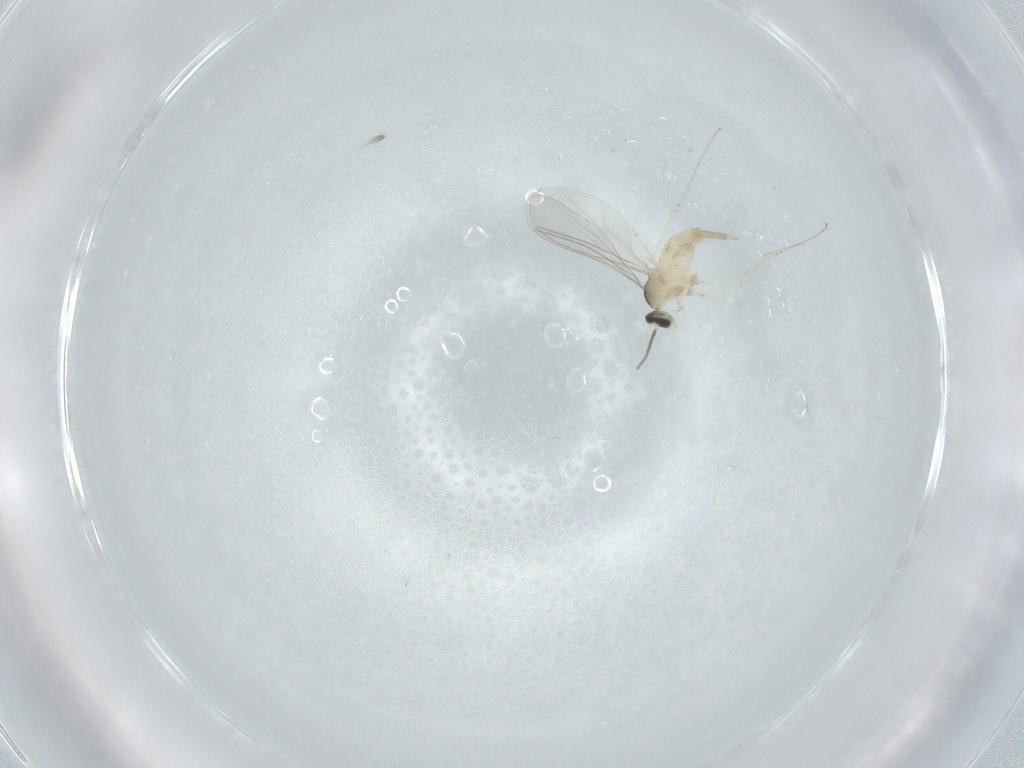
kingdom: Animalia
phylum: Arthropoda
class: Insecta
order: Diptera
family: Cecidomyiidae
